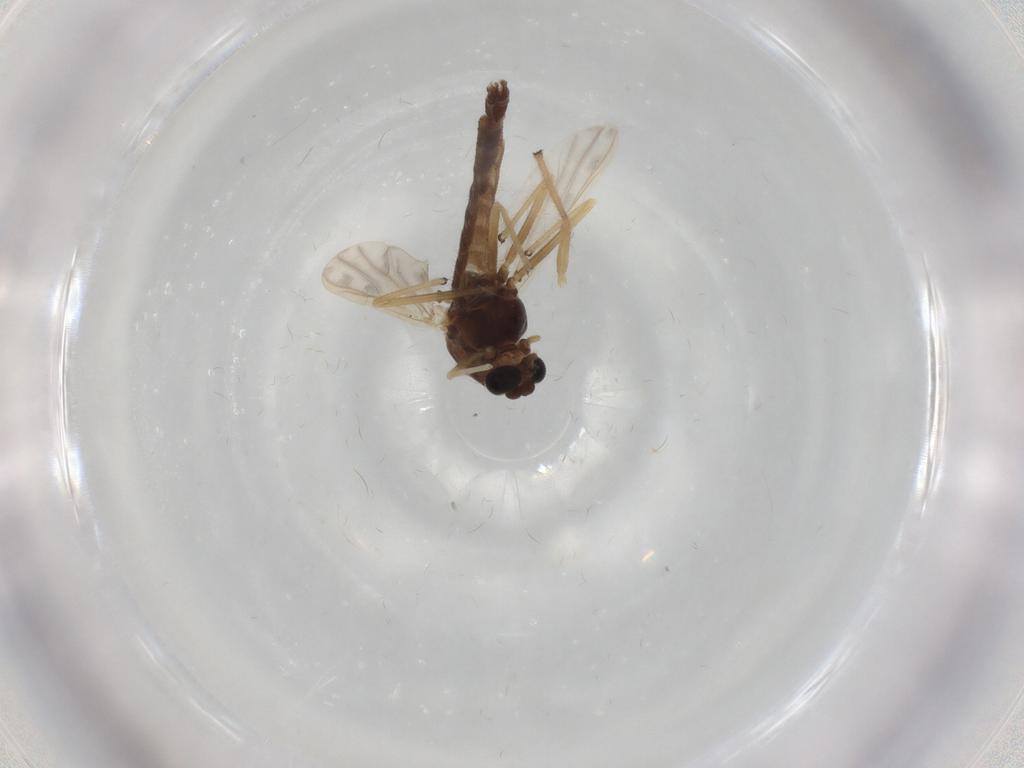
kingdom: Animalia
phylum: Arthropoda
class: Insecta
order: Diptera
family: Chironomidae
